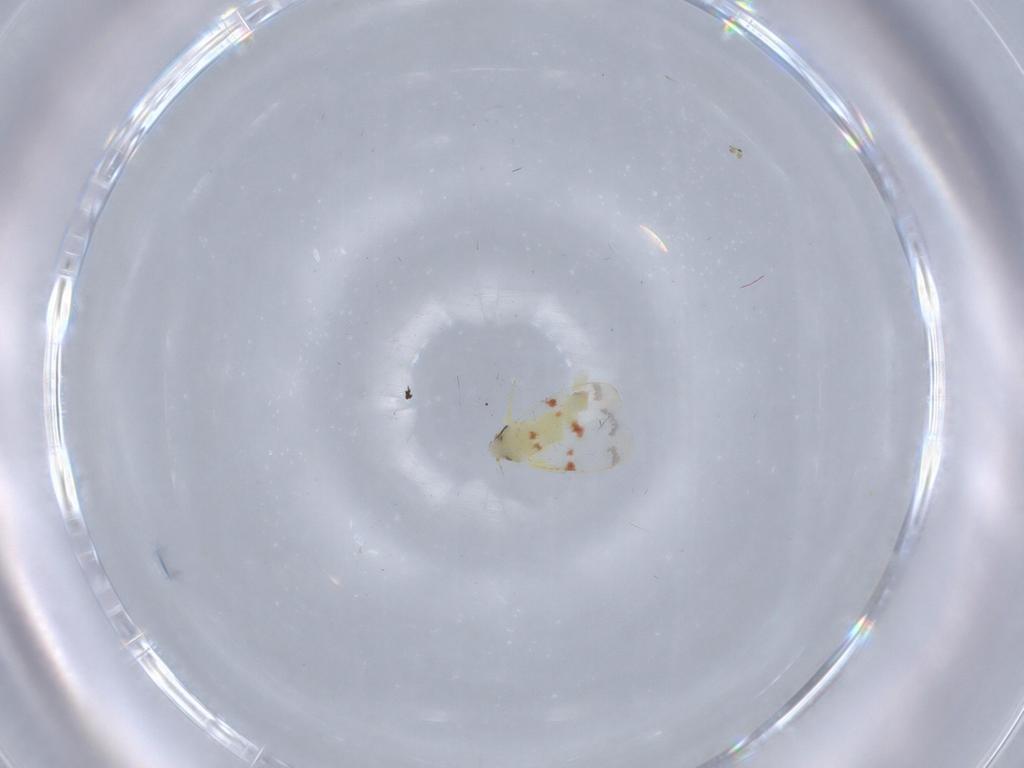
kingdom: Animalia
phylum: Arthropoda
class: Insecta
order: Hemiptera
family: Aleyrodidae
